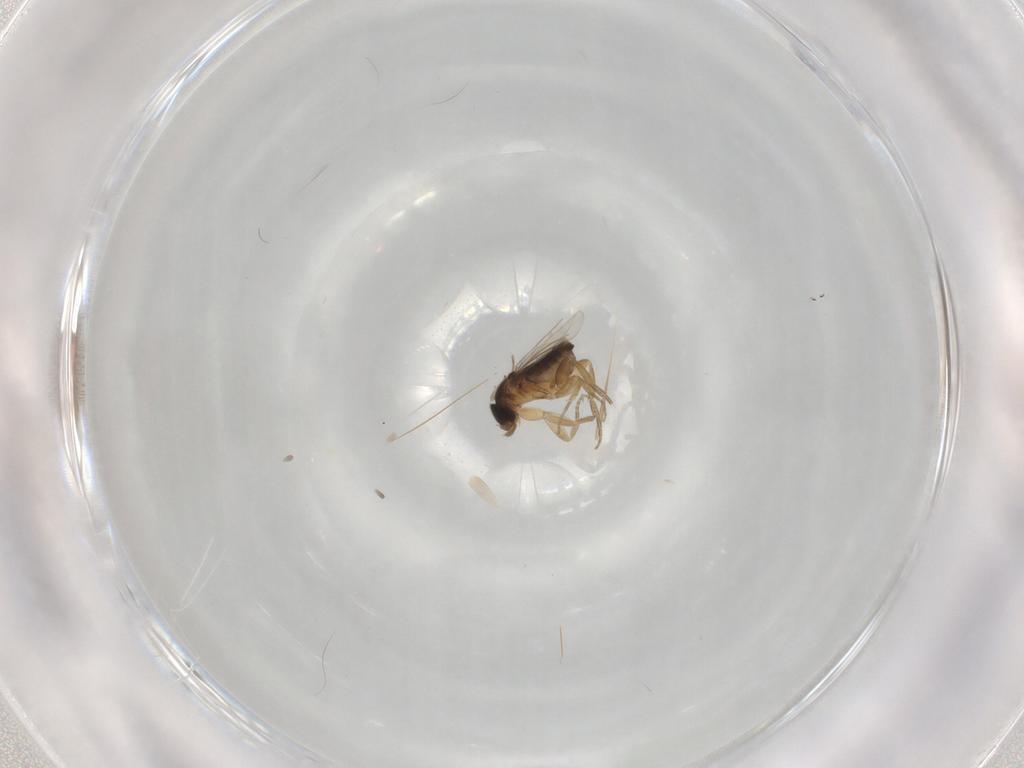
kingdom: Animalia
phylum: Arthropoda
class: Insecta
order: Diptera
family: Phoridae
